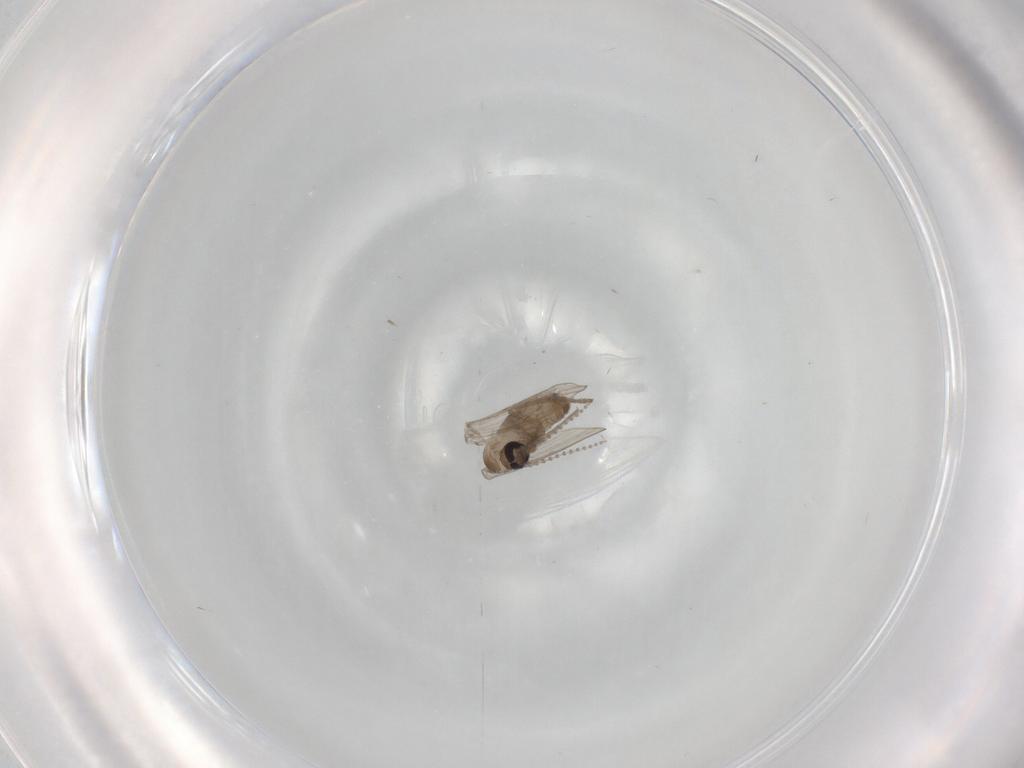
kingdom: Animalia
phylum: Arthropoda
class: Insecta
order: Diptera
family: Psychodidae
